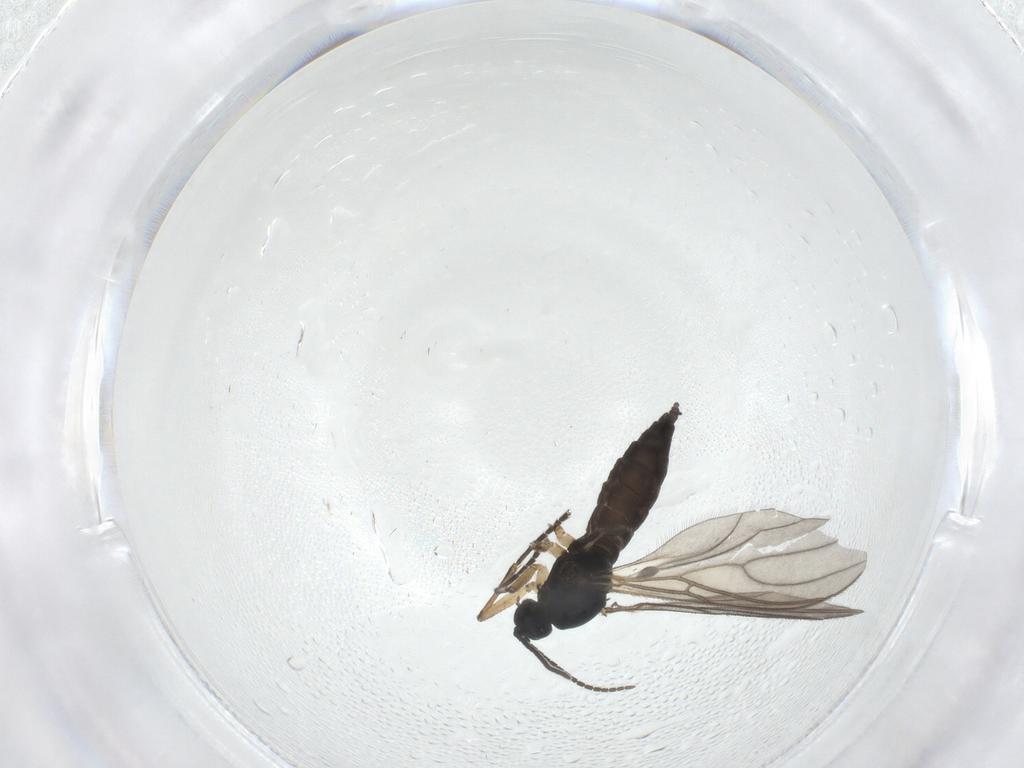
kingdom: Animalia
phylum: Arthropoda
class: Insecta
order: Diptera
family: Sciaridae
